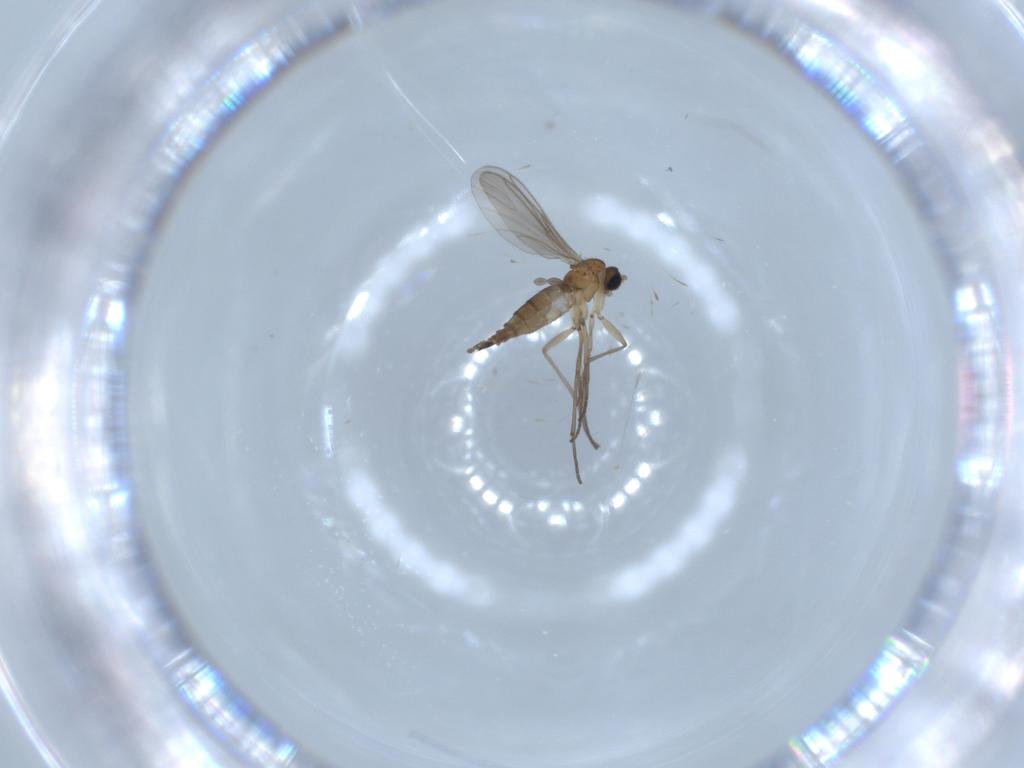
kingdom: Animalia
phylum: Arthropoda
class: Insecta
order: Diptera
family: Sciaridae
